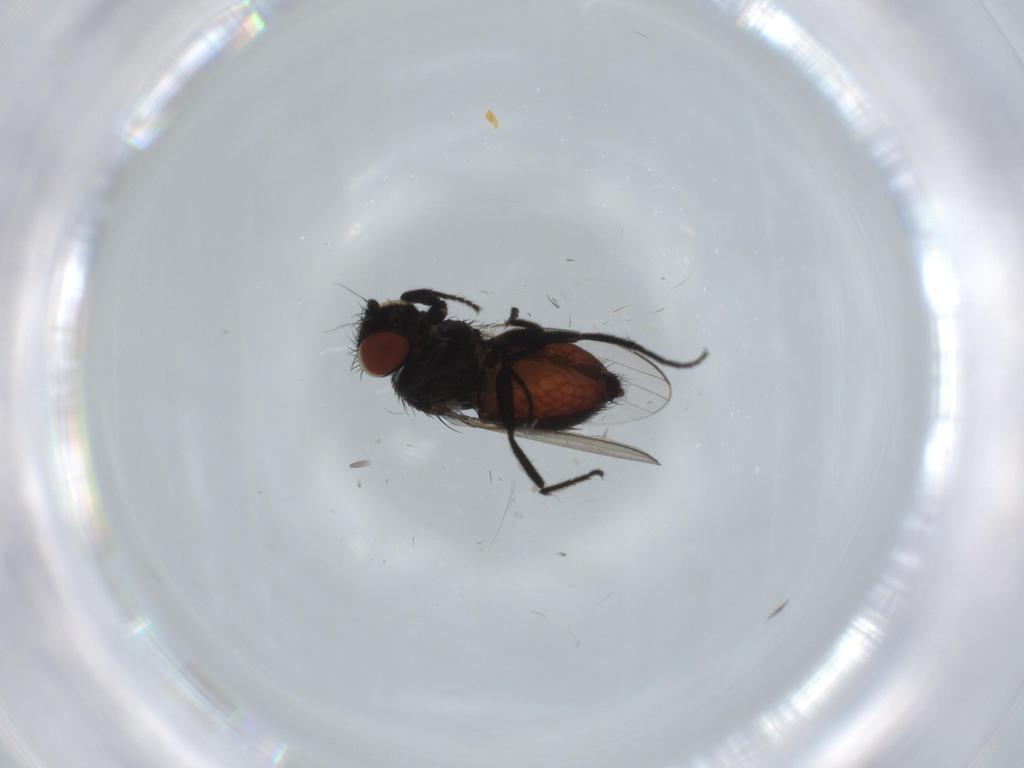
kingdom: Animalia
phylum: Arthropoda
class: Insecta
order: Diptera
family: Milichiidae
